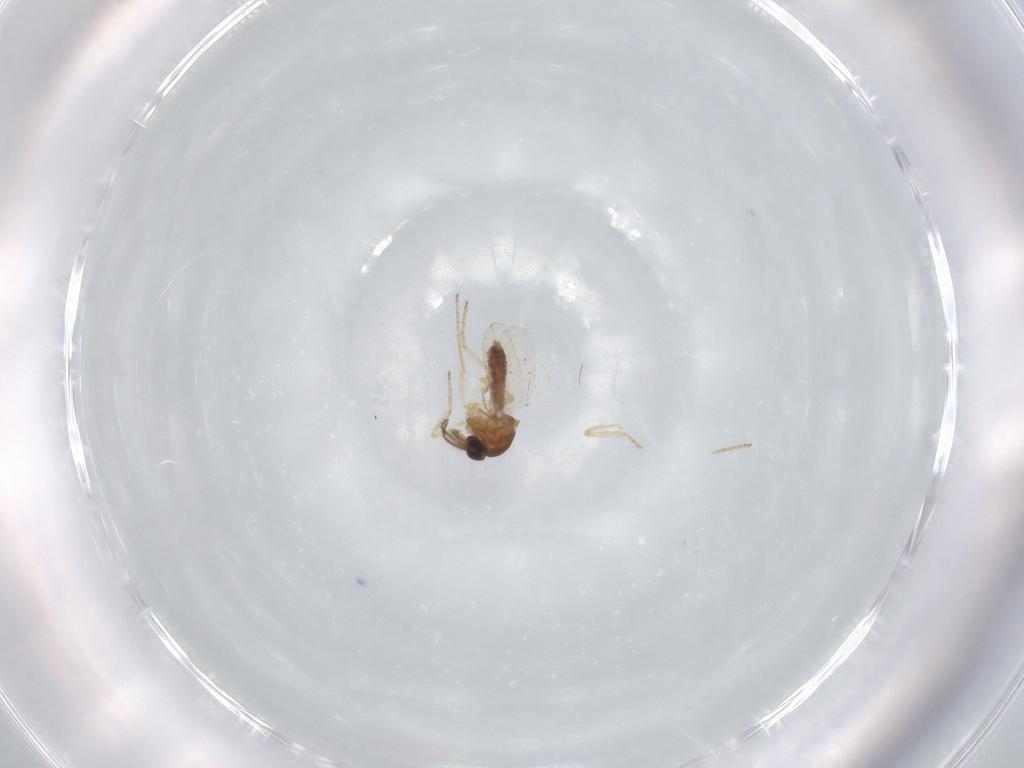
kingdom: Animalia
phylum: Arthropoda
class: Insecta
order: Diptera
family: Ceratopogonidae
